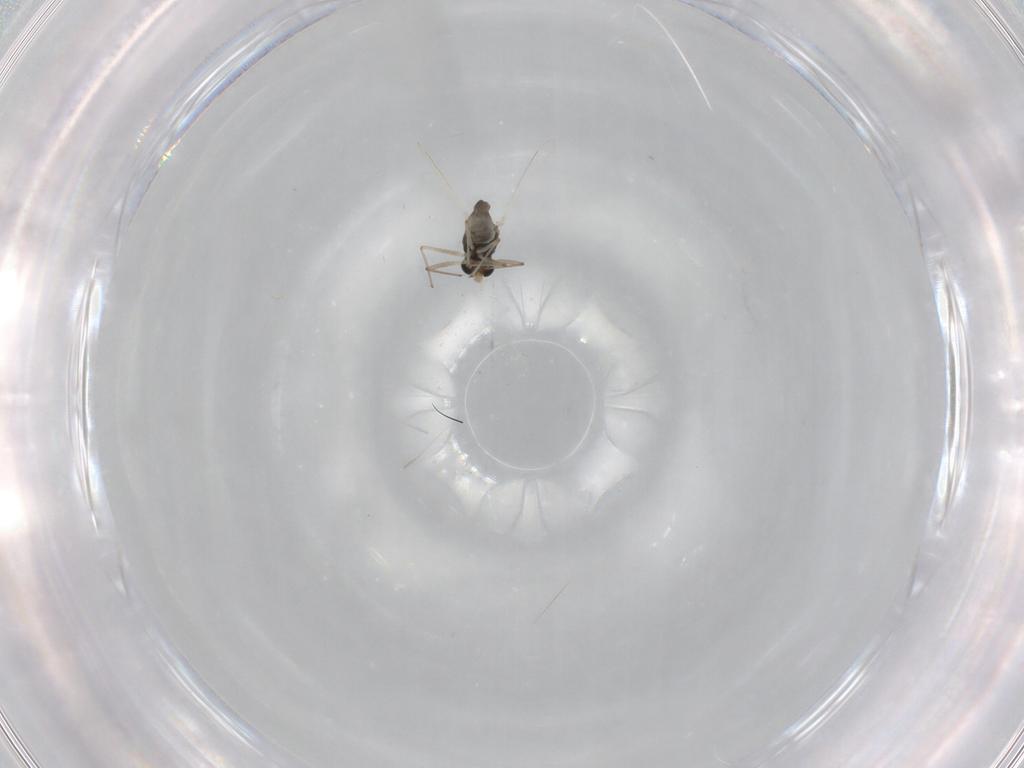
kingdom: Animalia
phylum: Arthropoda
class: Insecta
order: Diptera
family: Chironomidae
